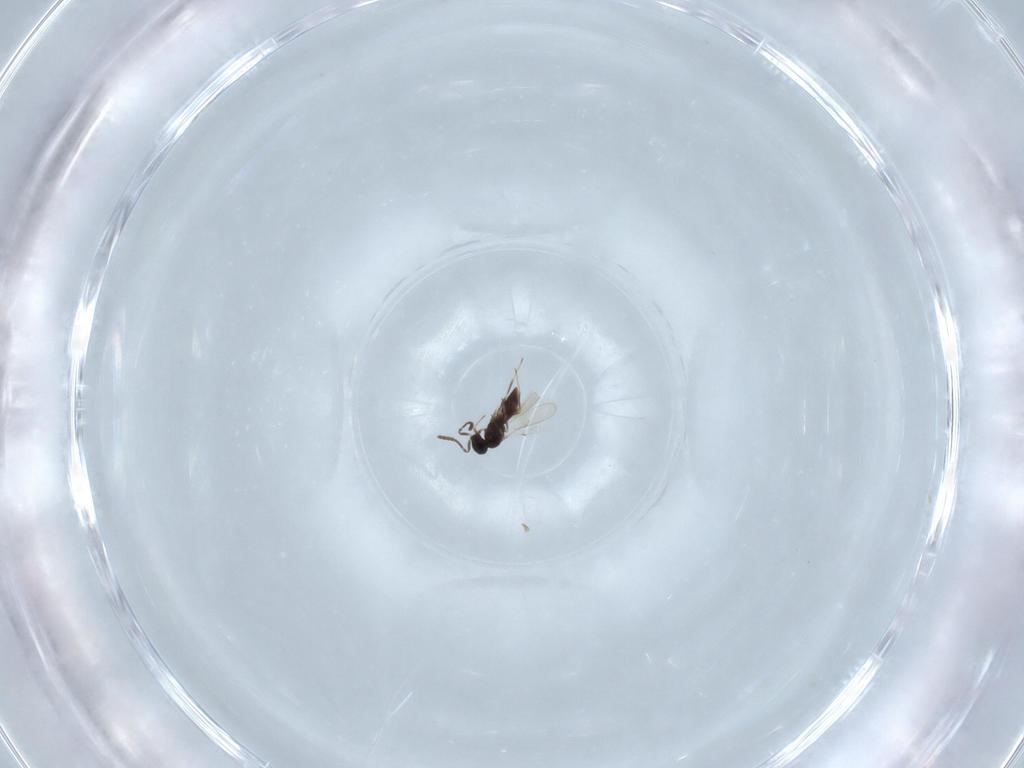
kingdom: Animalia
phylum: Arthropoda
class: Insecta
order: Hymenoptera
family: Scelionidae
